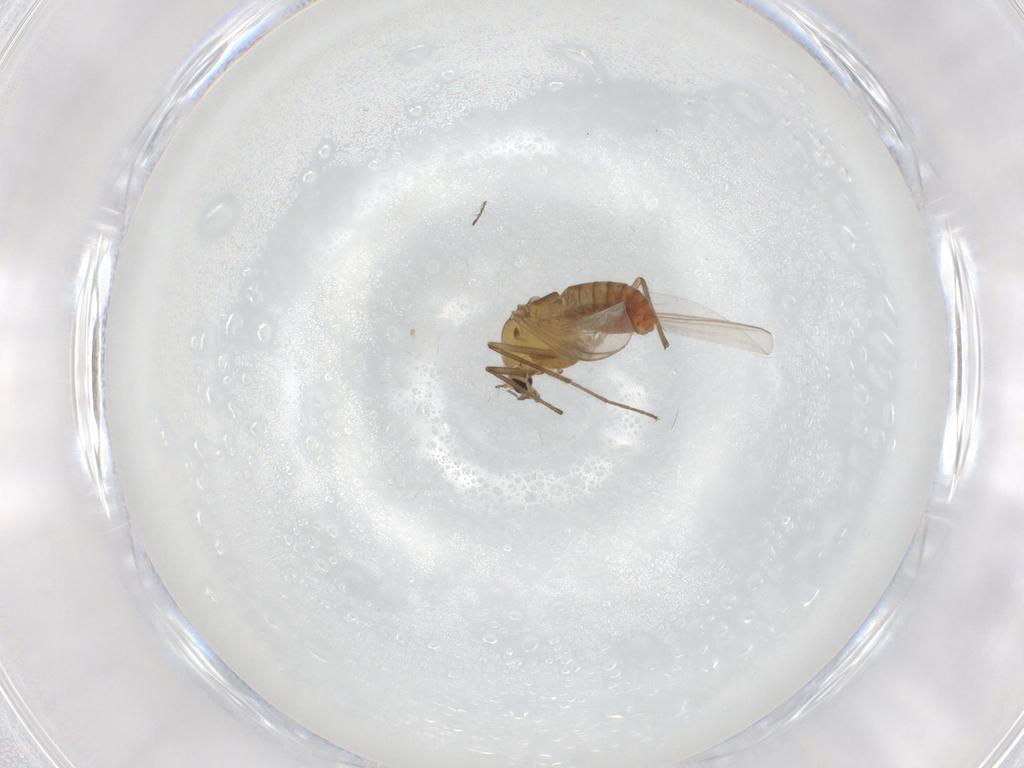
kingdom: Animalia
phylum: Arthropoda
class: Insecta
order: Diptera
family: Chironomidae
